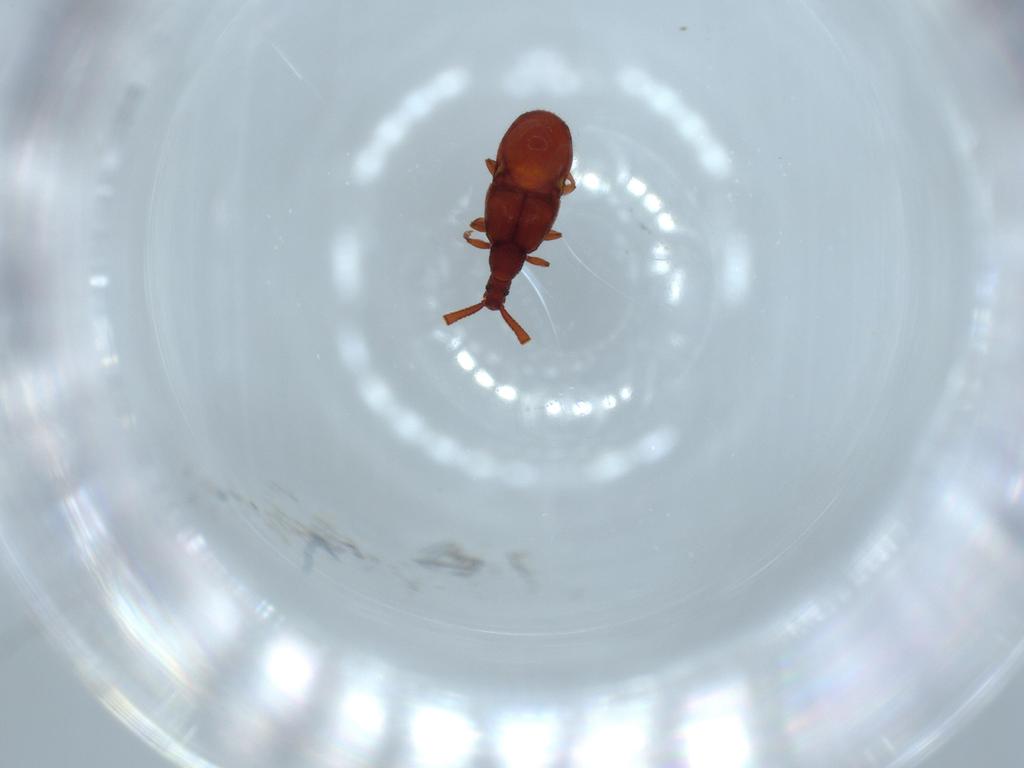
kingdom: Animalia
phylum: Arthropoda
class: Insecta
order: Coleoptera
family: Staphylinidae
